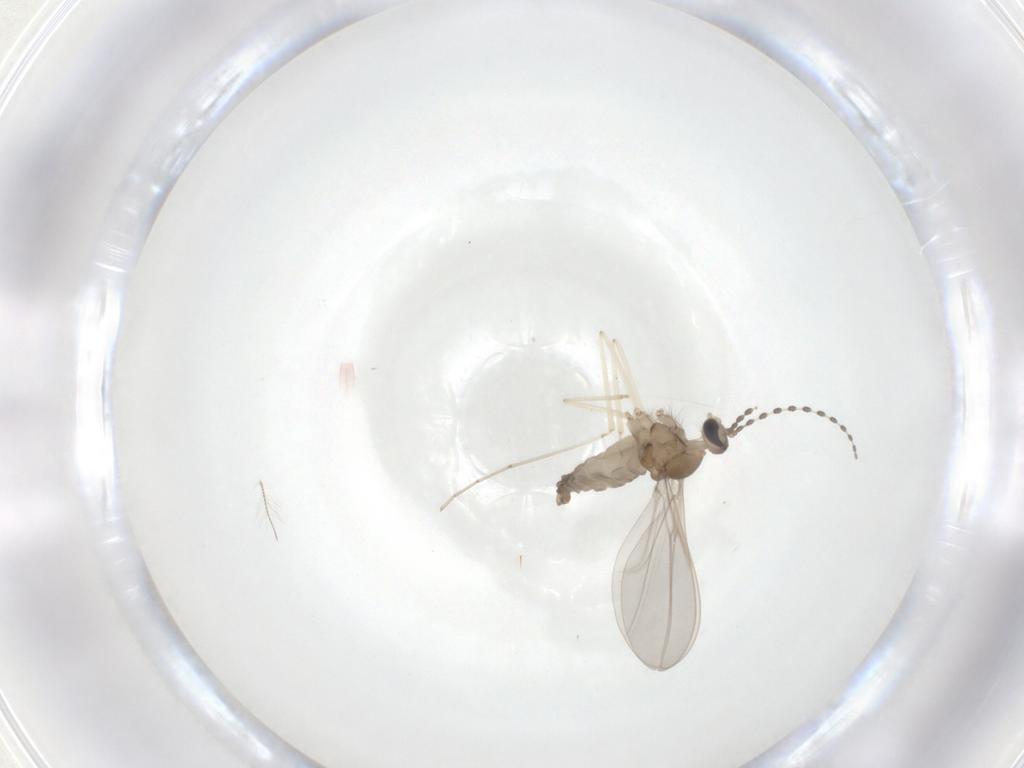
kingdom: Animalia
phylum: Arthropoda
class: Insecta
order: Diptera
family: Cecidomyiidae
